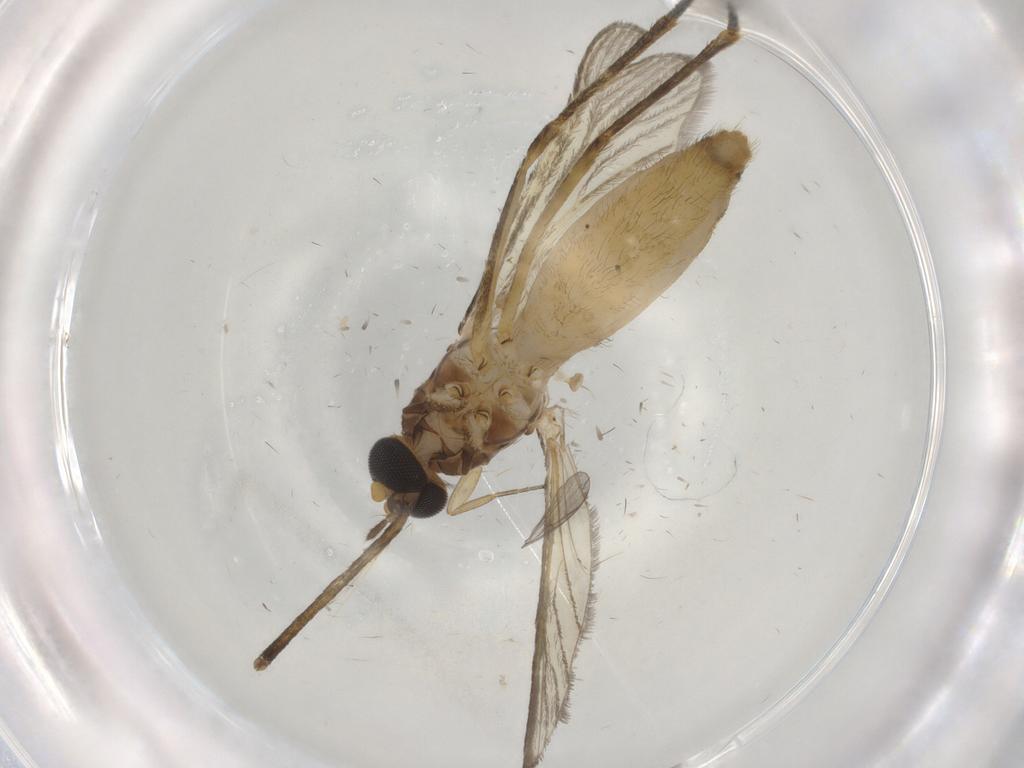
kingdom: Animalia
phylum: Arthropoda
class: Insecta
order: Diptera
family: Culicidae
